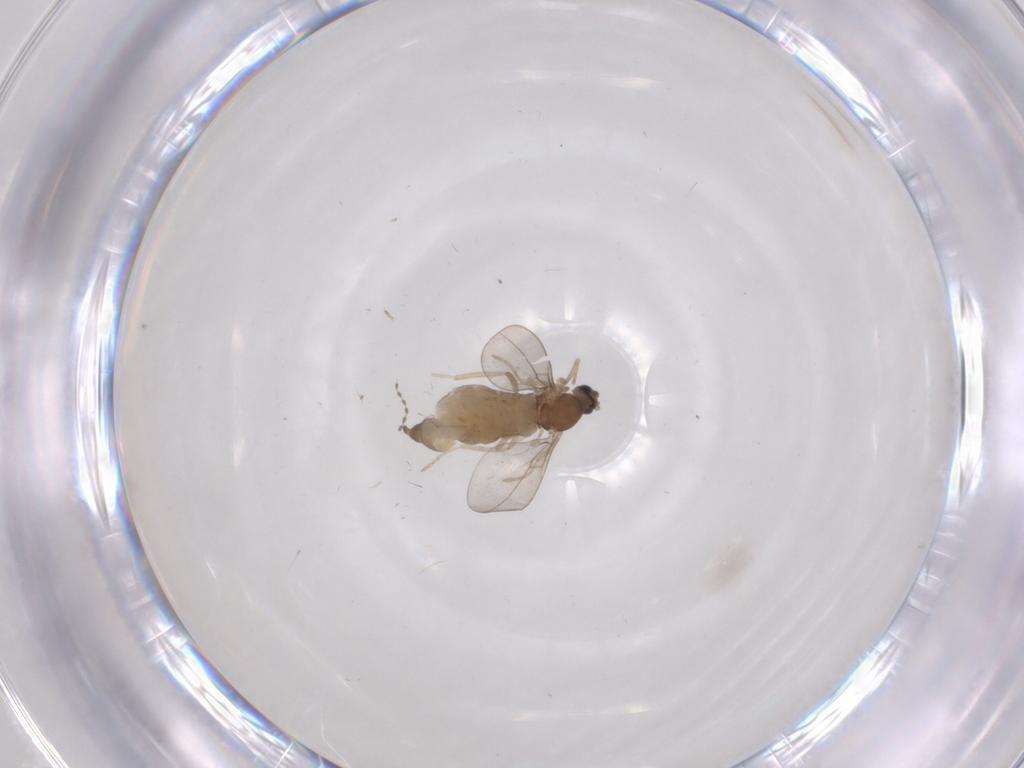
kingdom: Animalia
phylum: Arthropoda
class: Insecta
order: Diptera
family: Cecidomyiidae
